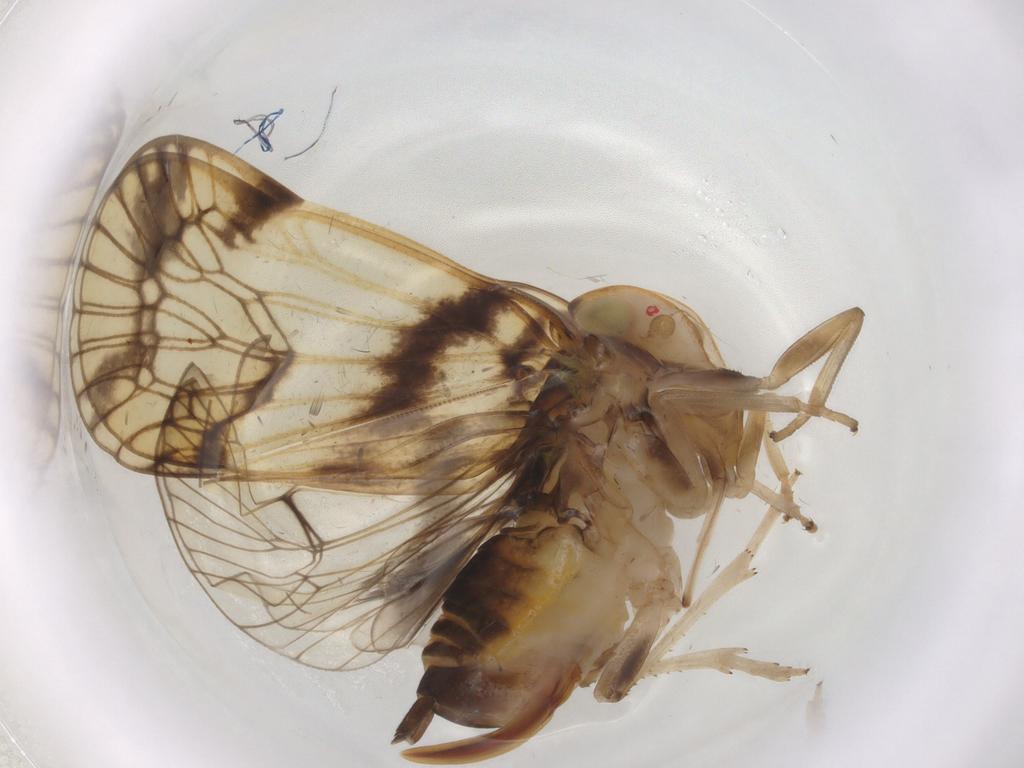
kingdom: Animalia
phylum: Arthropoda
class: Insecta
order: Hemiptera
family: Cixiidae
